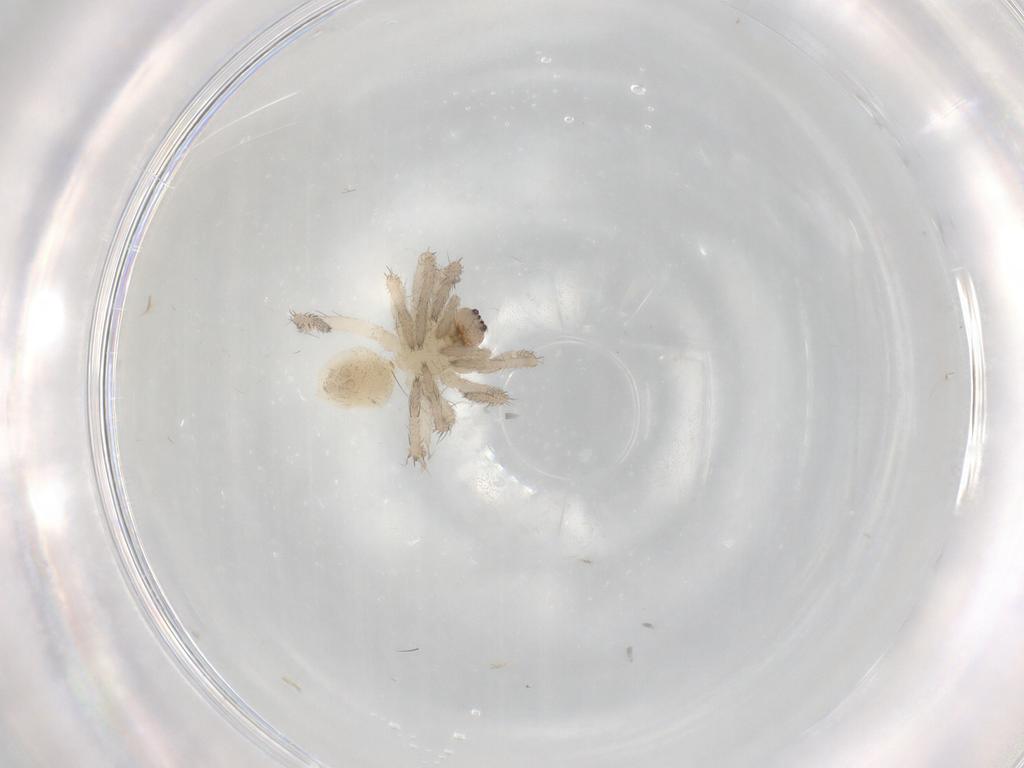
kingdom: Animalia
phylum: Arthropoda
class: Arachnida
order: Araneae
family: Anyphaenidae
